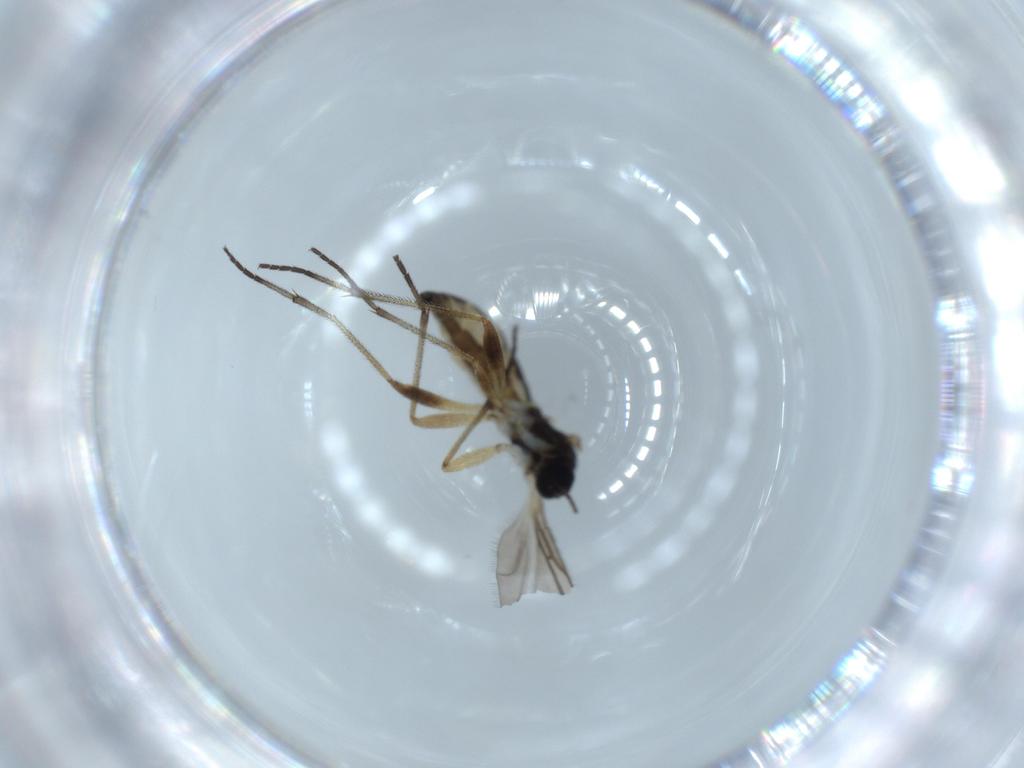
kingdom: Animalia
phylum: Arthropoda
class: Insecta
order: Diptera
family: Sciaridae
